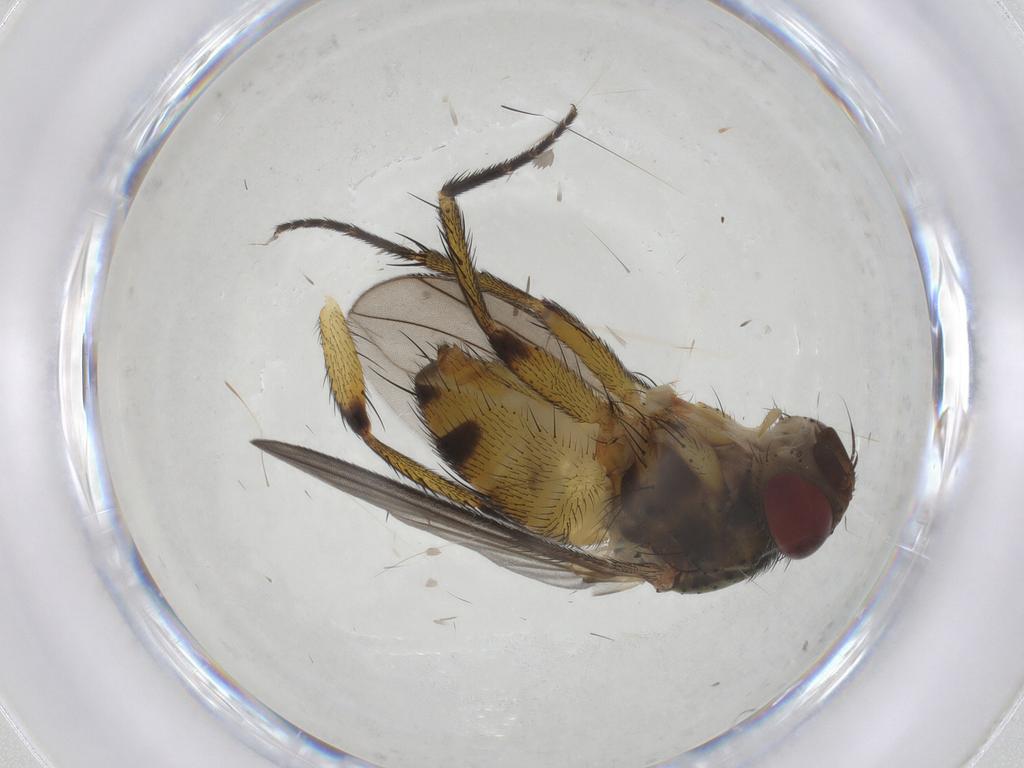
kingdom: Animalia
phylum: Arthropoda
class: Insecta
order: Diptera
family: Tachinidae
